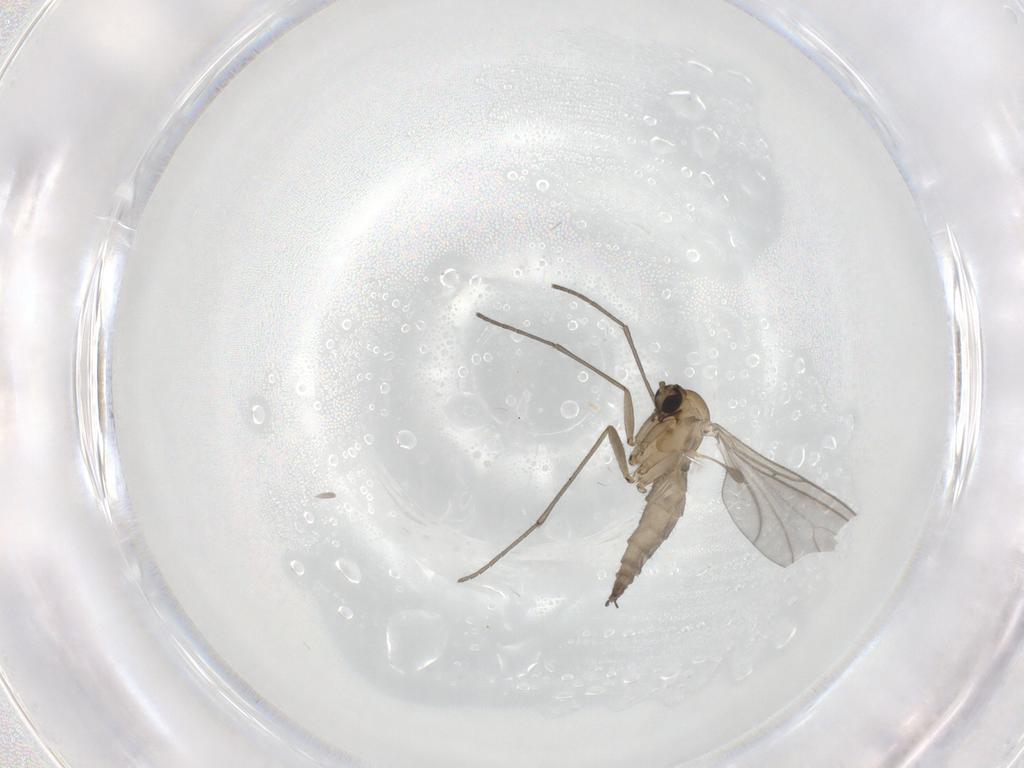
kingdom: Animalia
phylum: Arthropoda
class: Insecta
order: Diptera
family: Sciaridae
